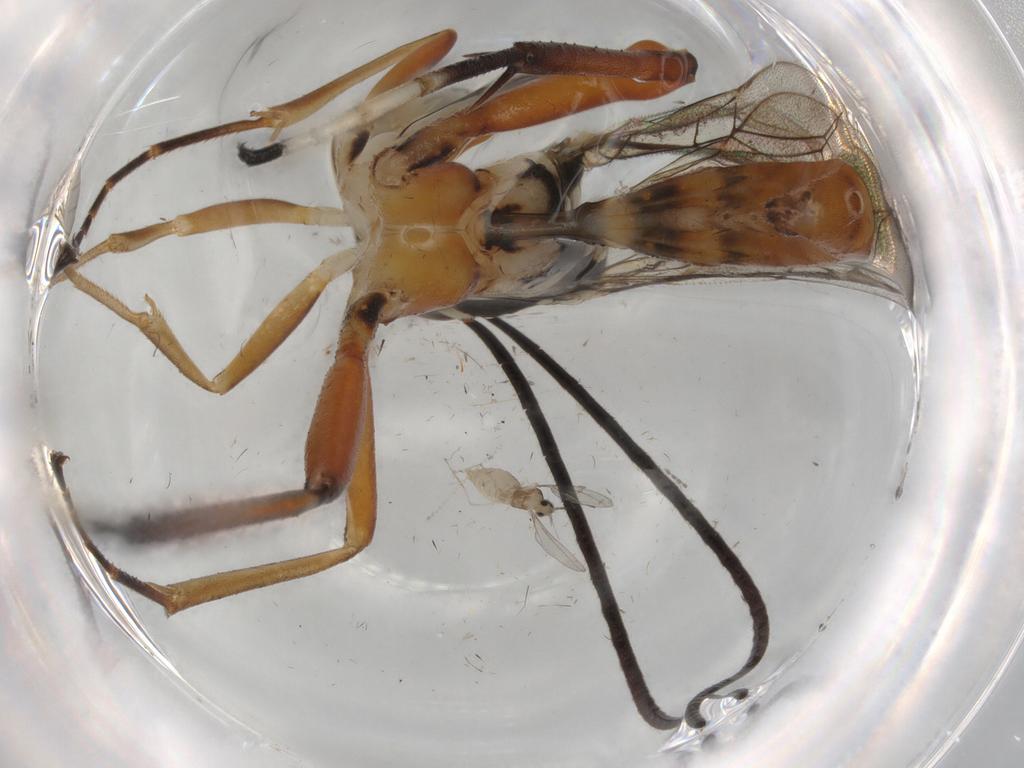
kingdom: Animalia
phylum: Arthropoda
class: Insecta
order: Diptera
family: Phoridae
